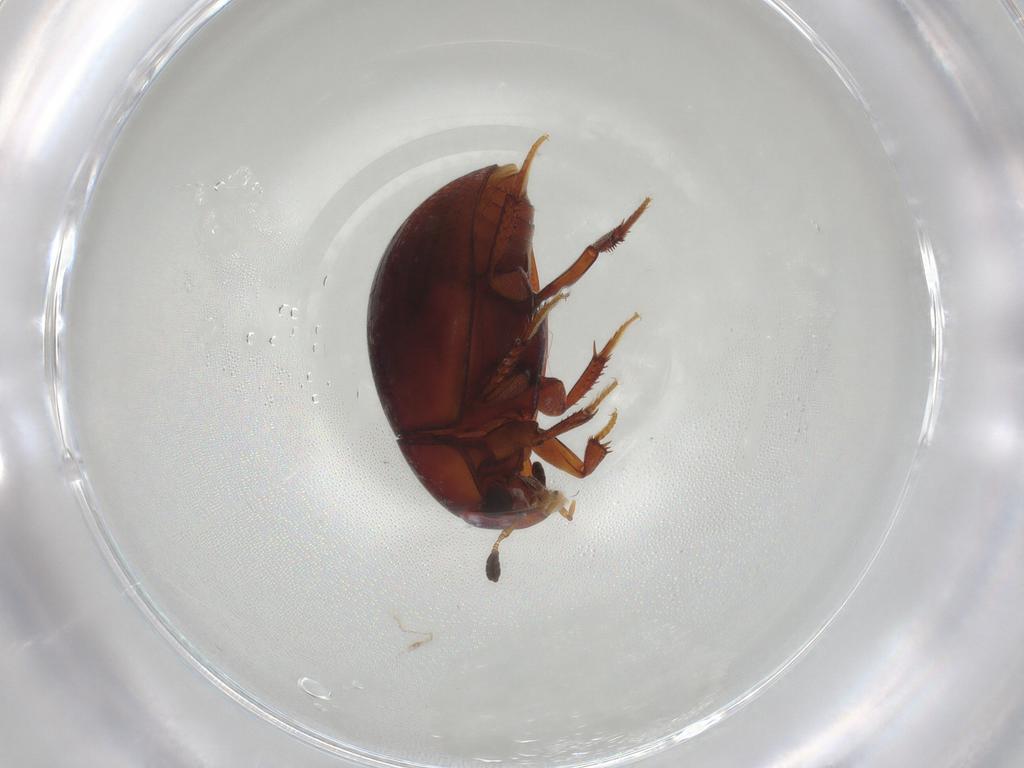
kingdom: Animalia
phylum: Arthropoda
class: Insecta
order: Coleoptera
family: Hydrophilidae
